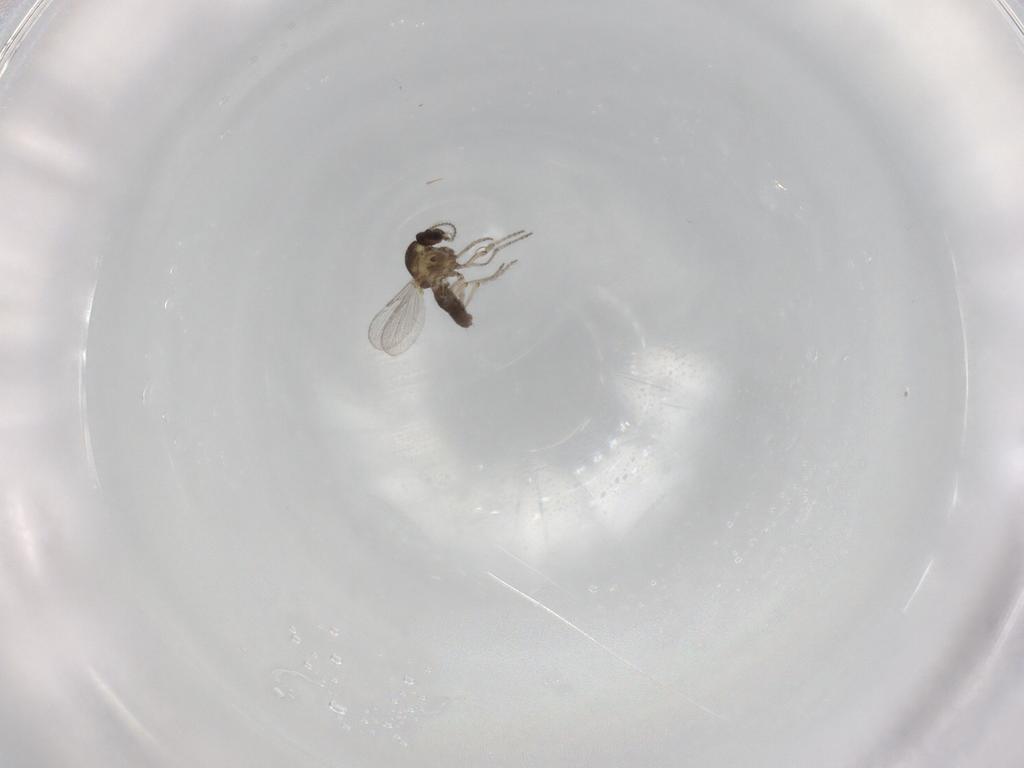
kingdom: Animalia
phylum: Arthropoda
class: Insecta
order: Diptera
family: Ceratopogonidae
